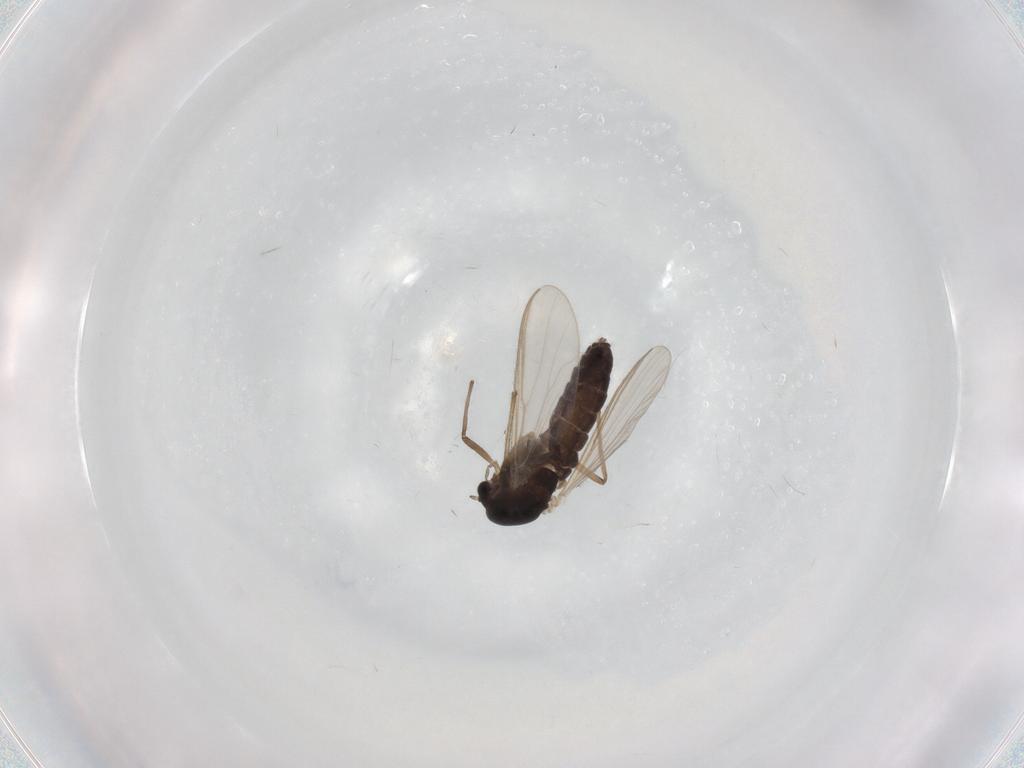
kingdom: Animalia
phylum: Arthropoda
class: Insecta
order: Diptera
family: Chironomidae
